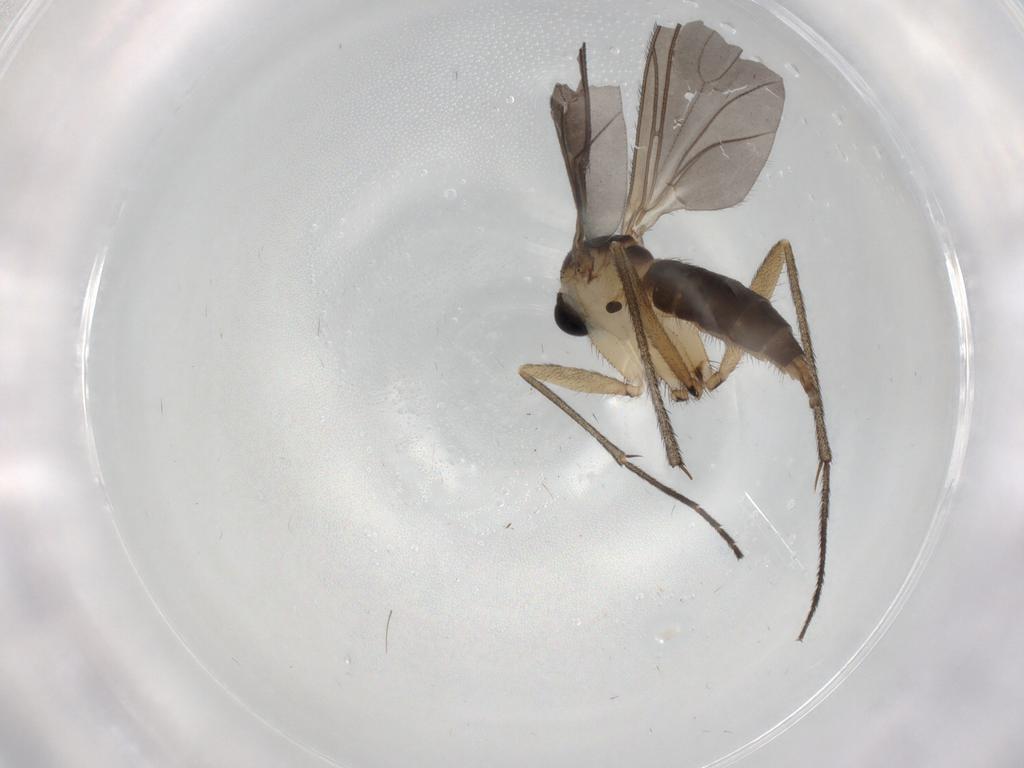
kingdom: Animalia
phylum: Arthropoda
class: Insecta
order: Diptera
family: Sciaridae
